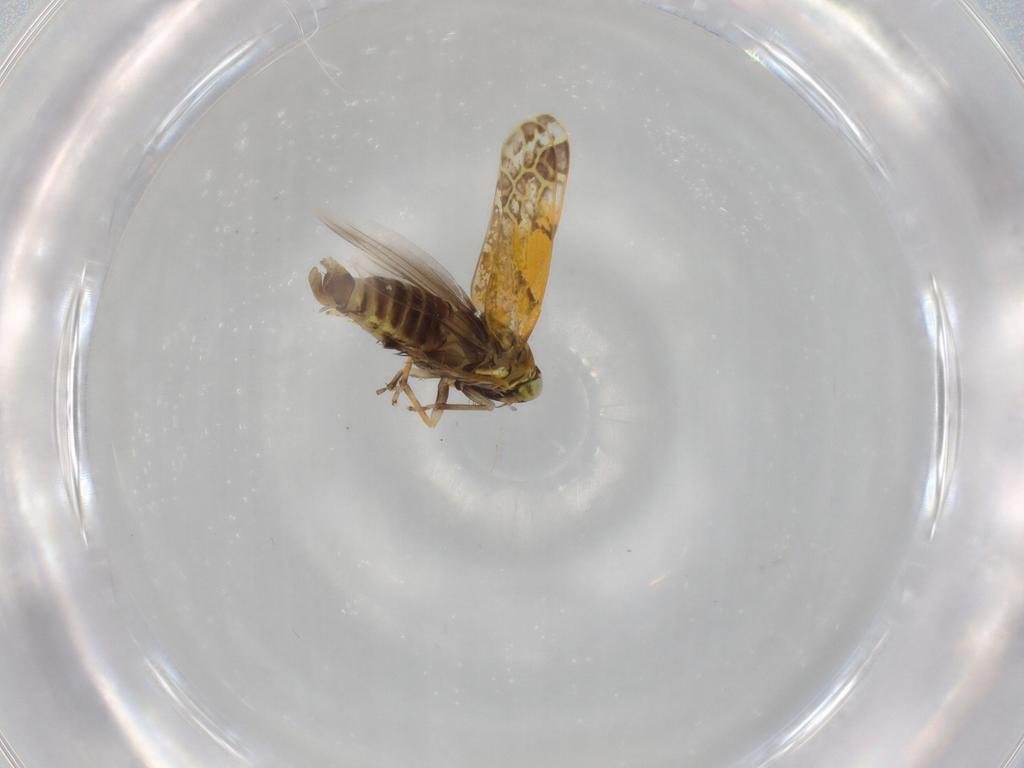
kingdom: Animalia
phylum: Arthropoda
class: Insecta
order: Hemiptera
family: Cicadellidae
